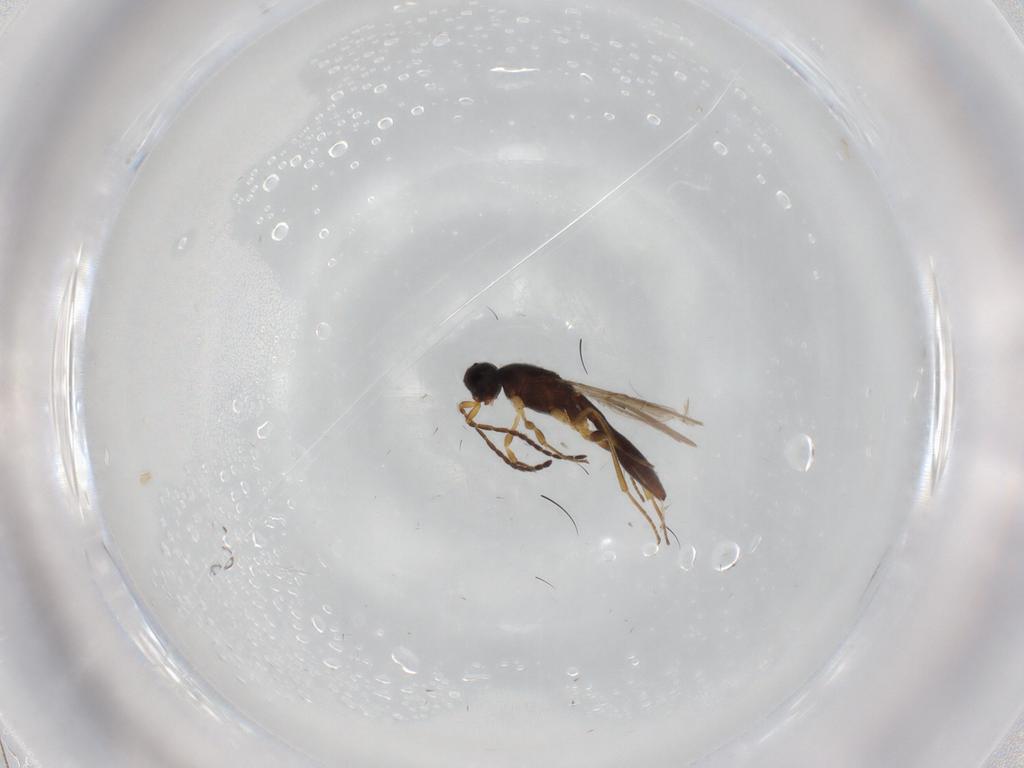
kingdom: Animalia
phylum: Arthropoda
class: Insecta
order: Hymenoptera
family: Scelionidae
